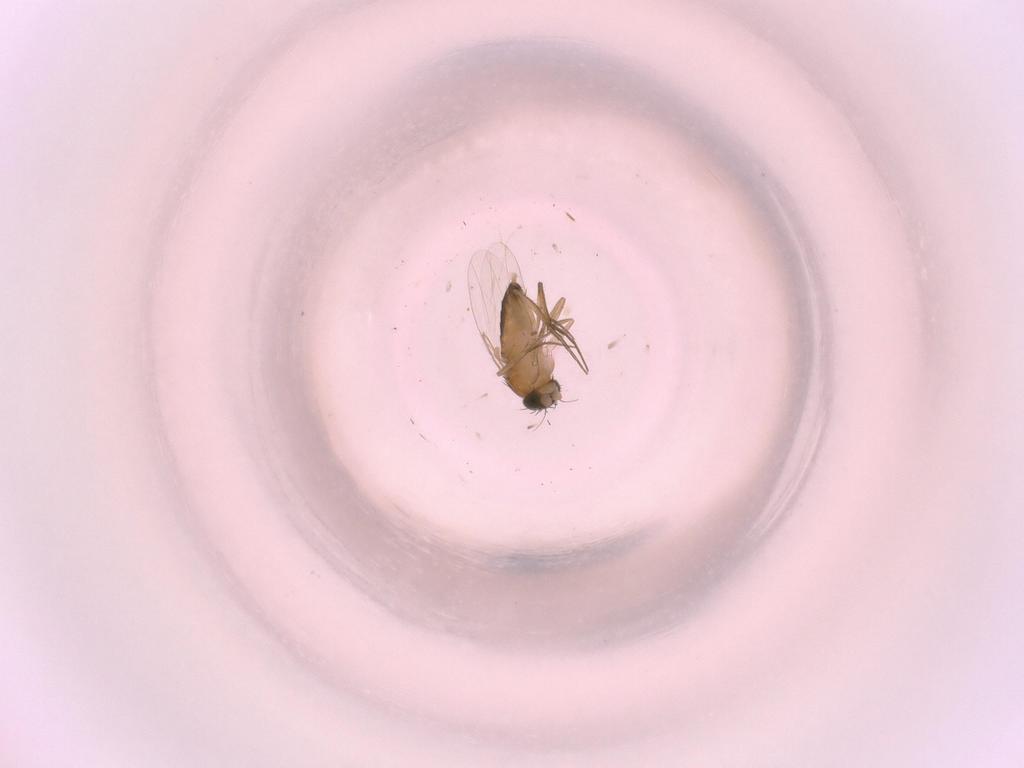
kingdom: Animalia
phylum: Arthropoda
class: Insecta
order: Diptera
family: Phoridae
